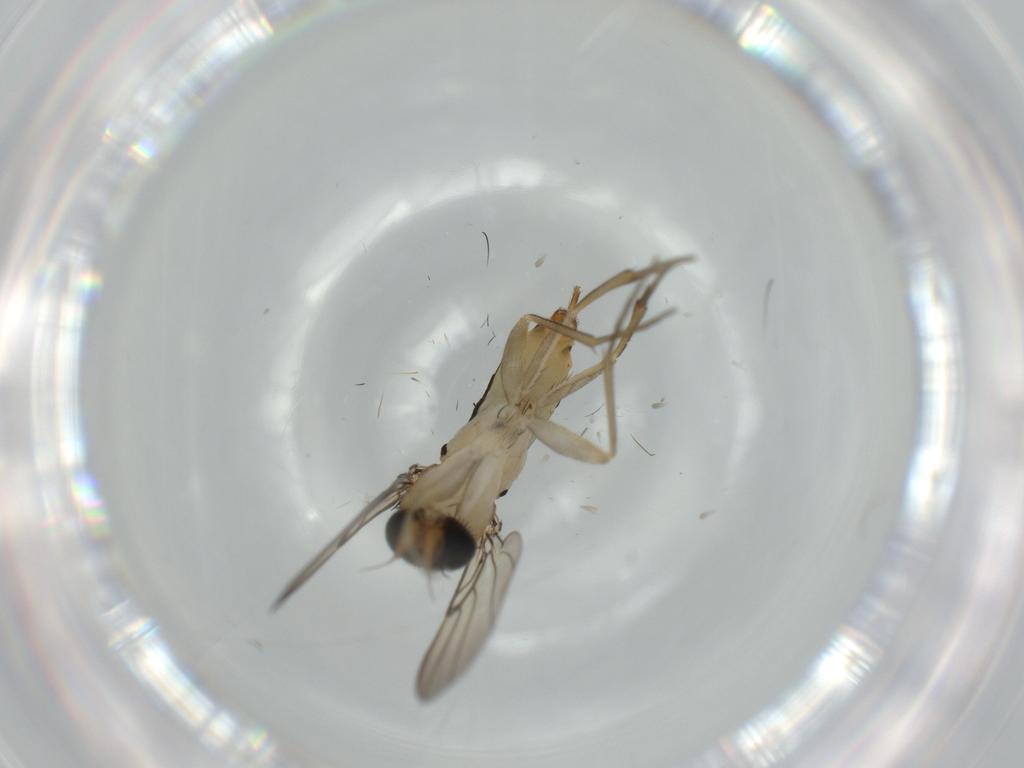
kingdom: Animalia
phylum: Arthropoda
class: Insecta
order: Diptera
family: Phoridae
